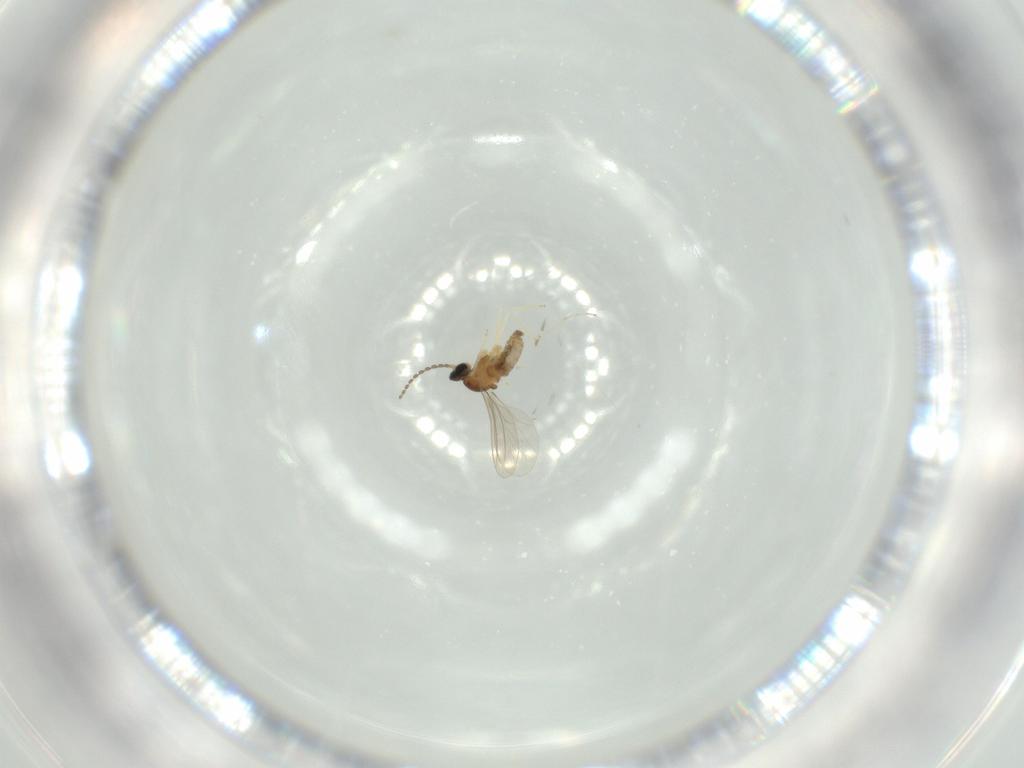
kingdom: Animalia
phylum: Arthropoda
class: Insecta
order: Diptera
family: Cecidomyiidae
